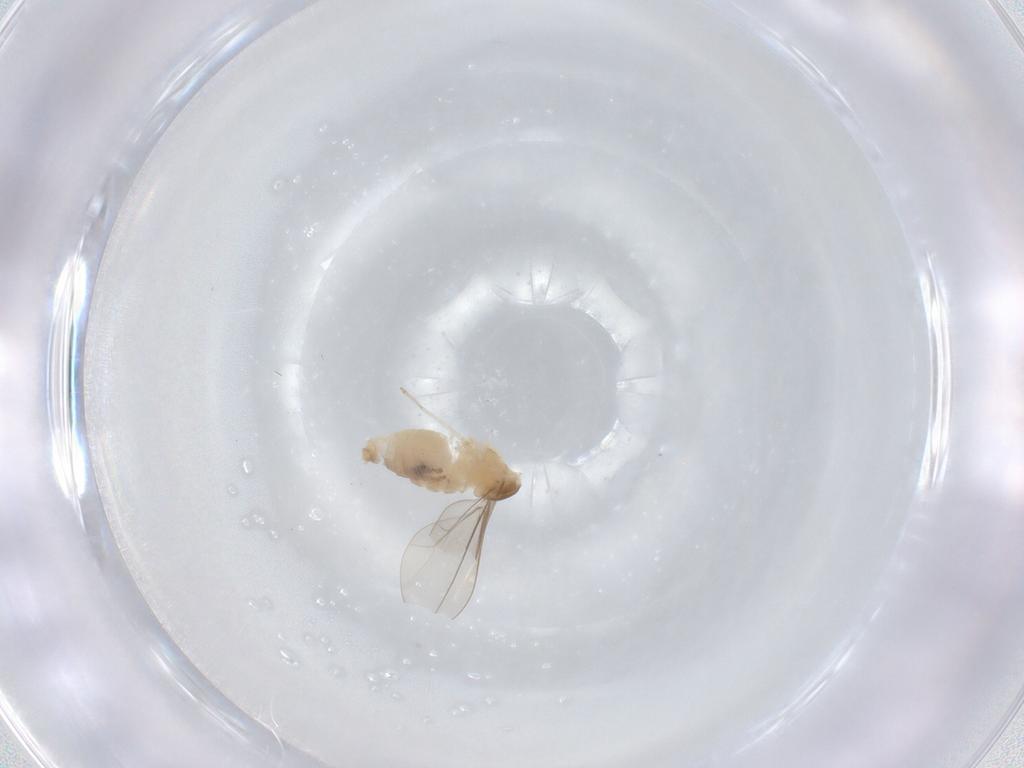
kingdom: Animalia
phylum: Arthropoda
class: Insecta
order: Diptera
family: Cecidomyiidae
